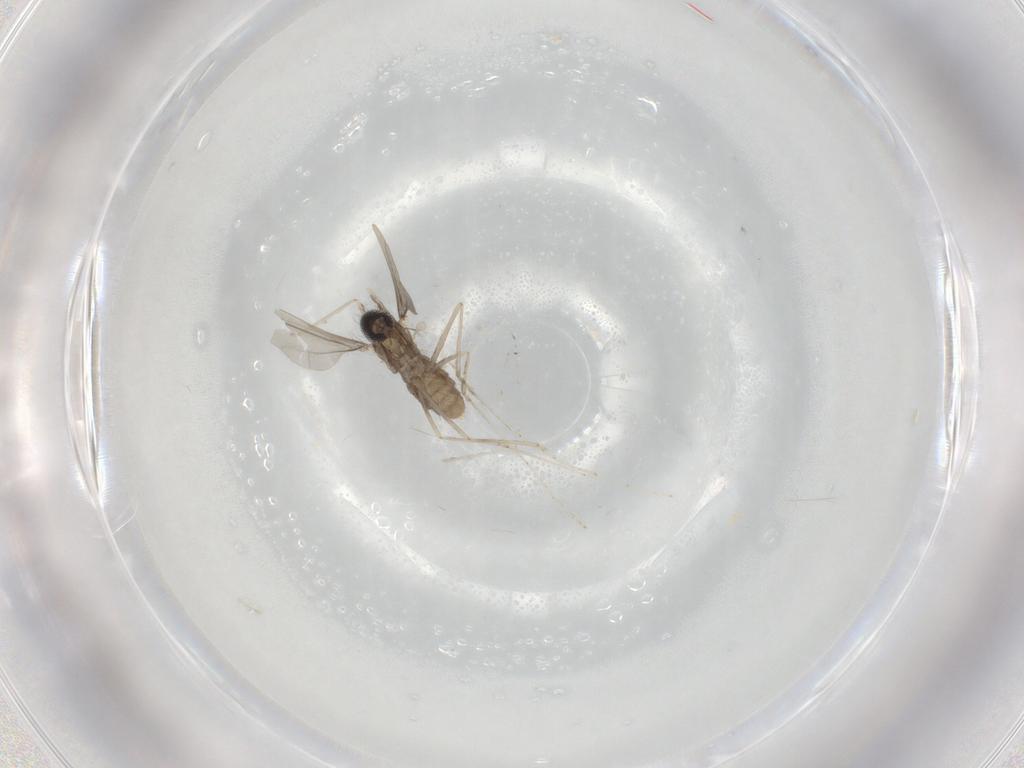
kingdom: Animalia
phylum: Arthropoda
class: Insecta
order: Diptera
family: Cecidomyiidae
